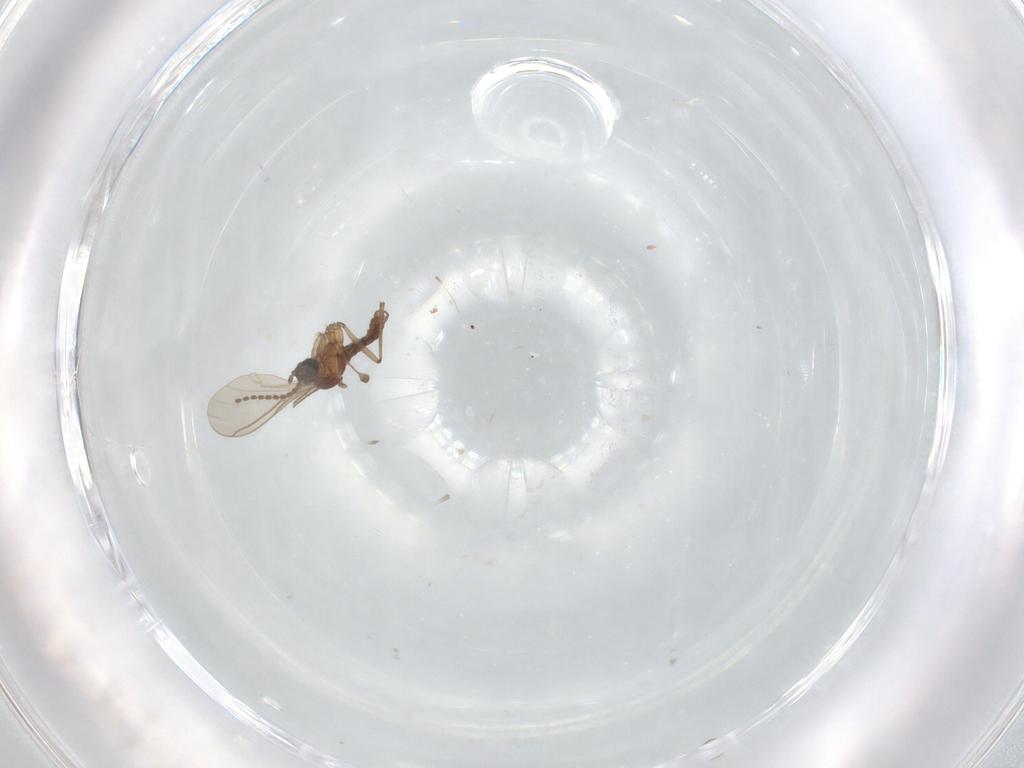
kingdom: Animalia
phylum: Arthropoda
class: Insecta
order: Diptera
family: Sciaridae
